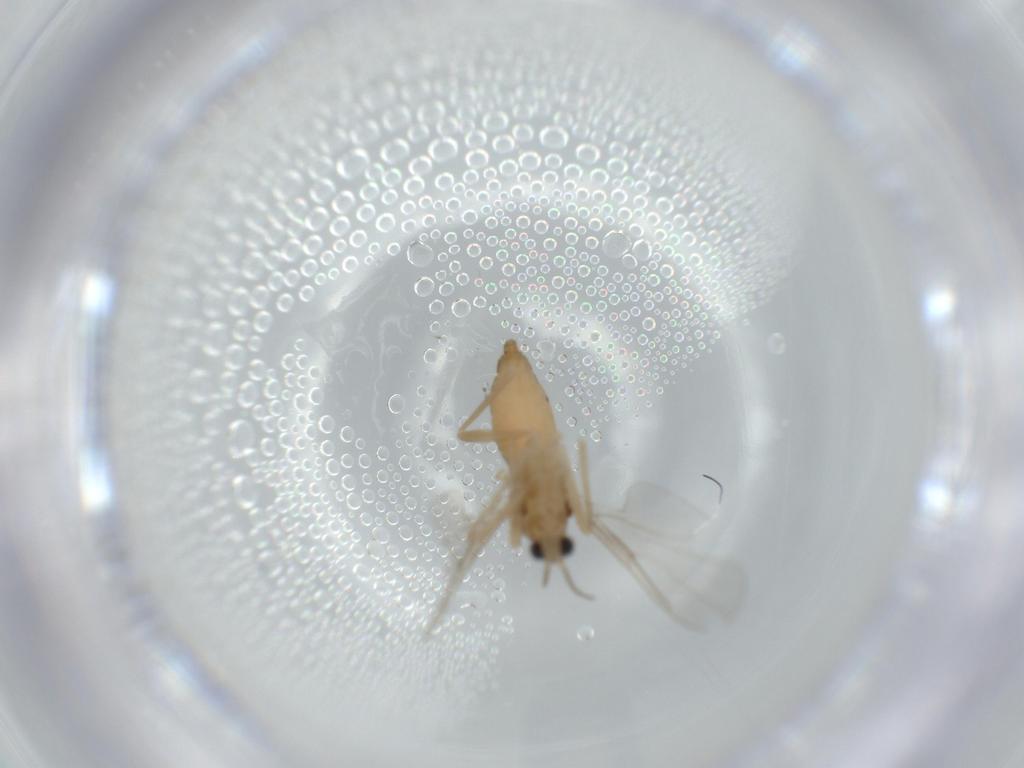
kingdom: Animalia
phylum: Arthropoda
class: Insecta
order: Diptera
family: Cecidomyiidae
